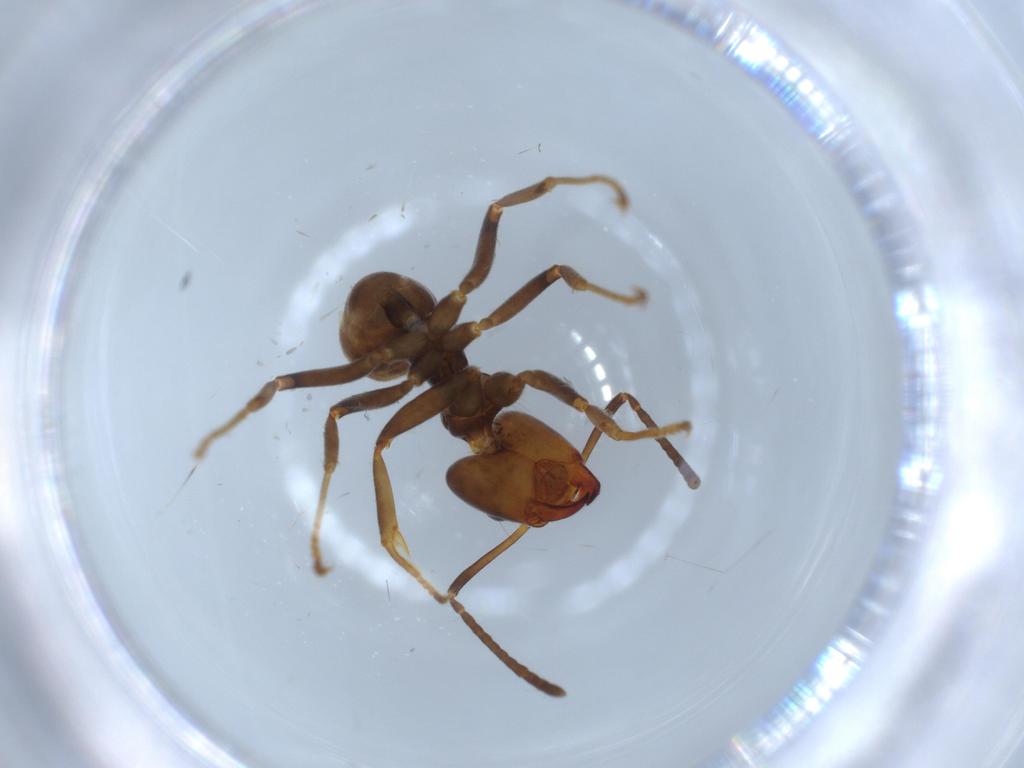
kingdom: Animalia
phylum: Arthropoda
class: Insecta
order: Hymenoptera
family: Formicidae
